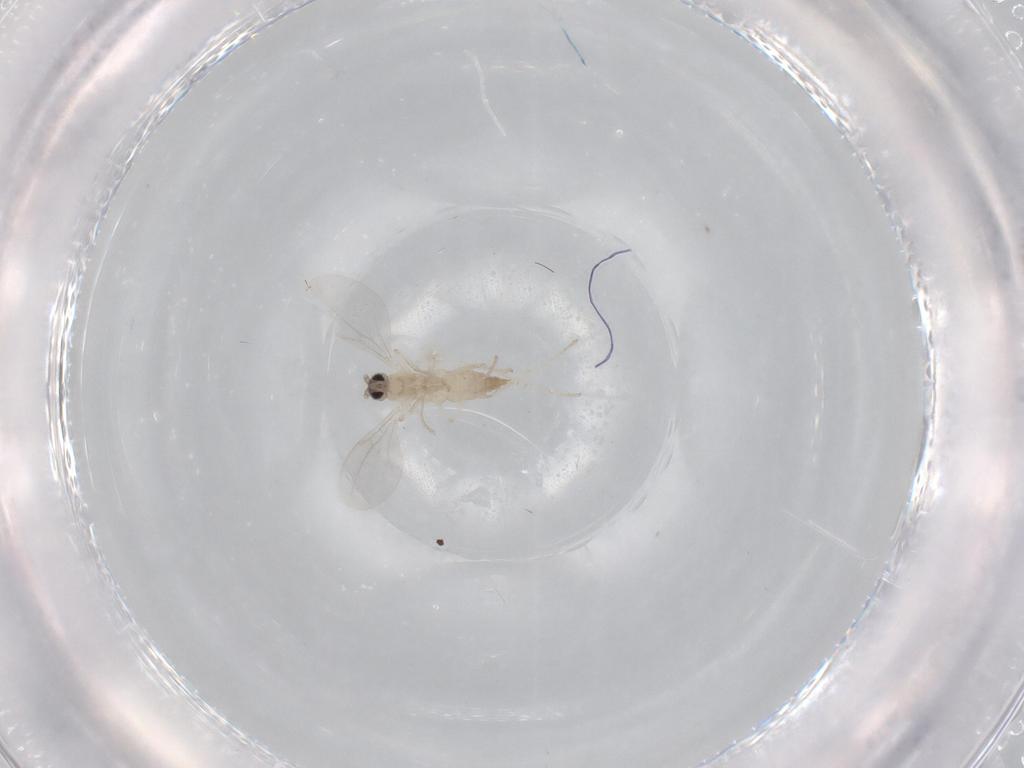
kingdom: Animalia
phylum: Arthropoda
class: Insecta
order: Diptera
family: Cecidomyiidae
